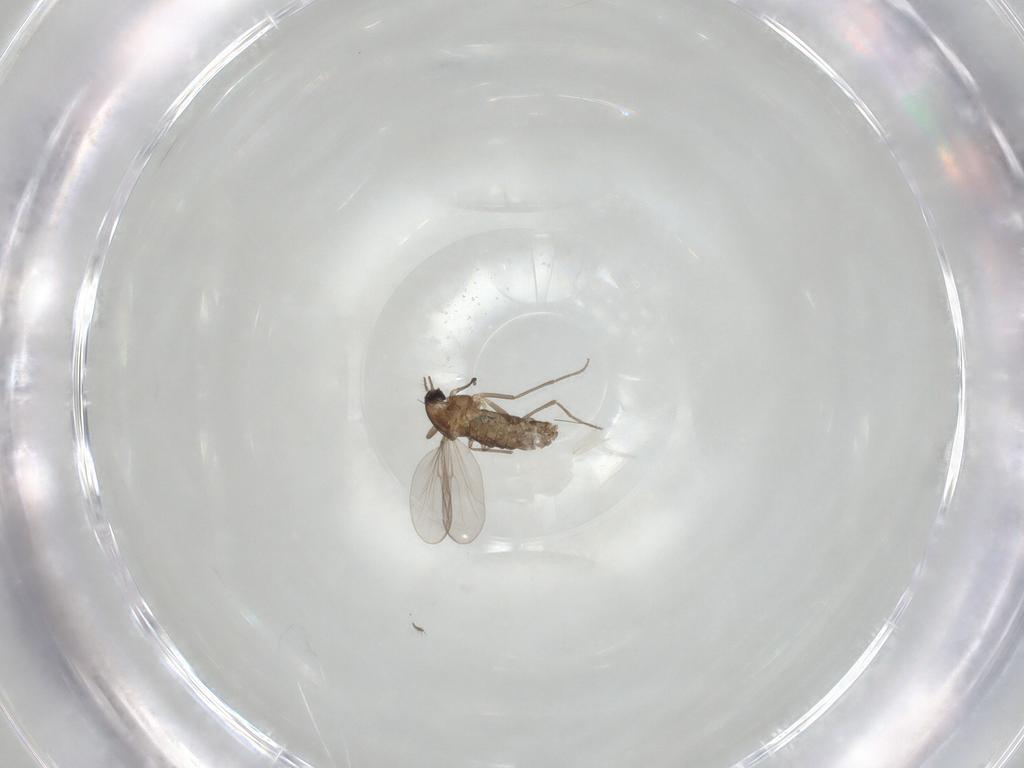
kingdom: Animalia
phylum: Arthropoda
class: Insecta
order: Diptera
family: Chironomidae
